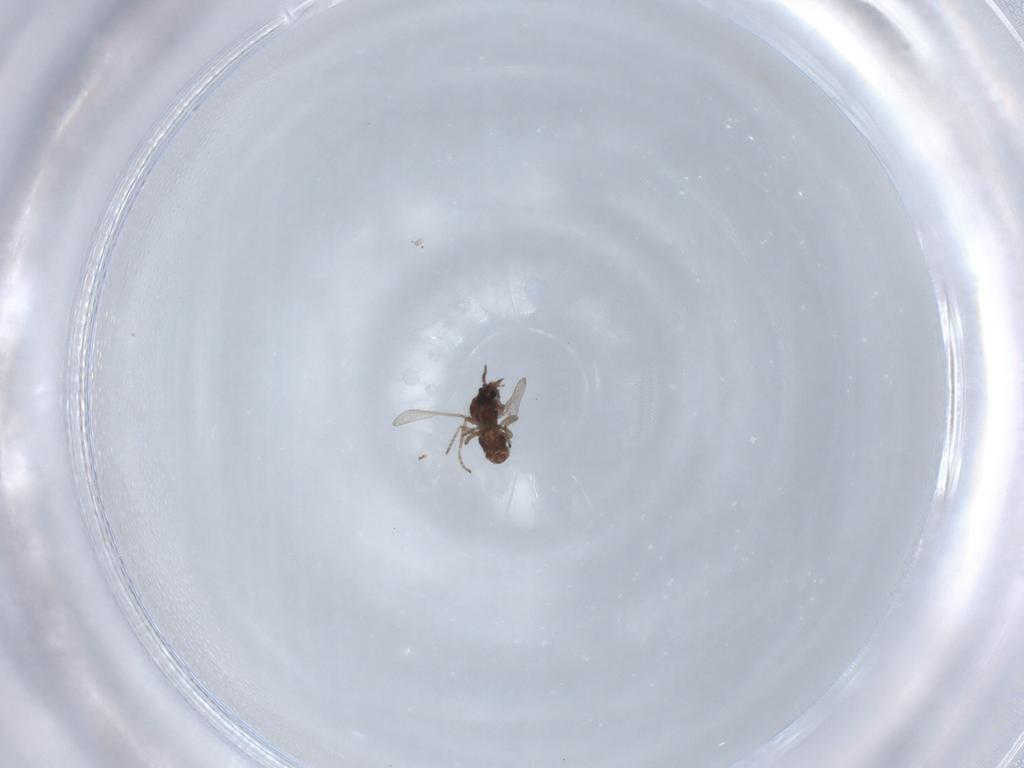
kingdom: Animalia
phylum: Arthropoda
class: Insecta
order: Diptera
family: Ceratopogonidae
